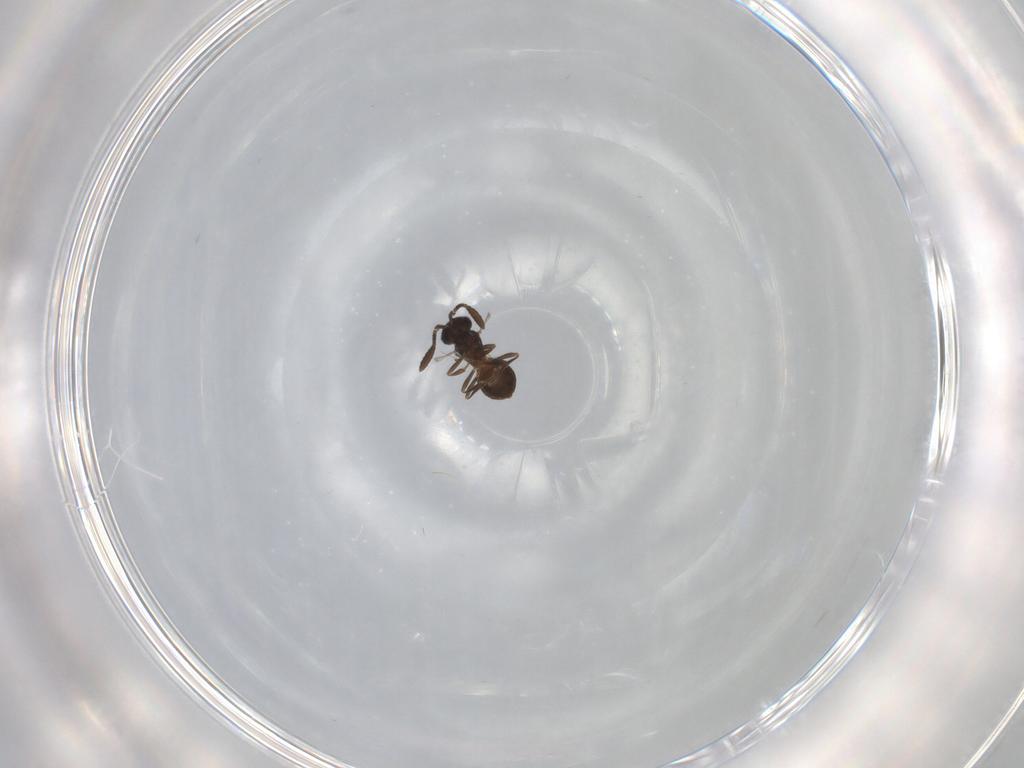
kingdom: Animalia
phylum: Arthropoda
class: Insecta
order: Hymenoptera
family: Scelionidae
